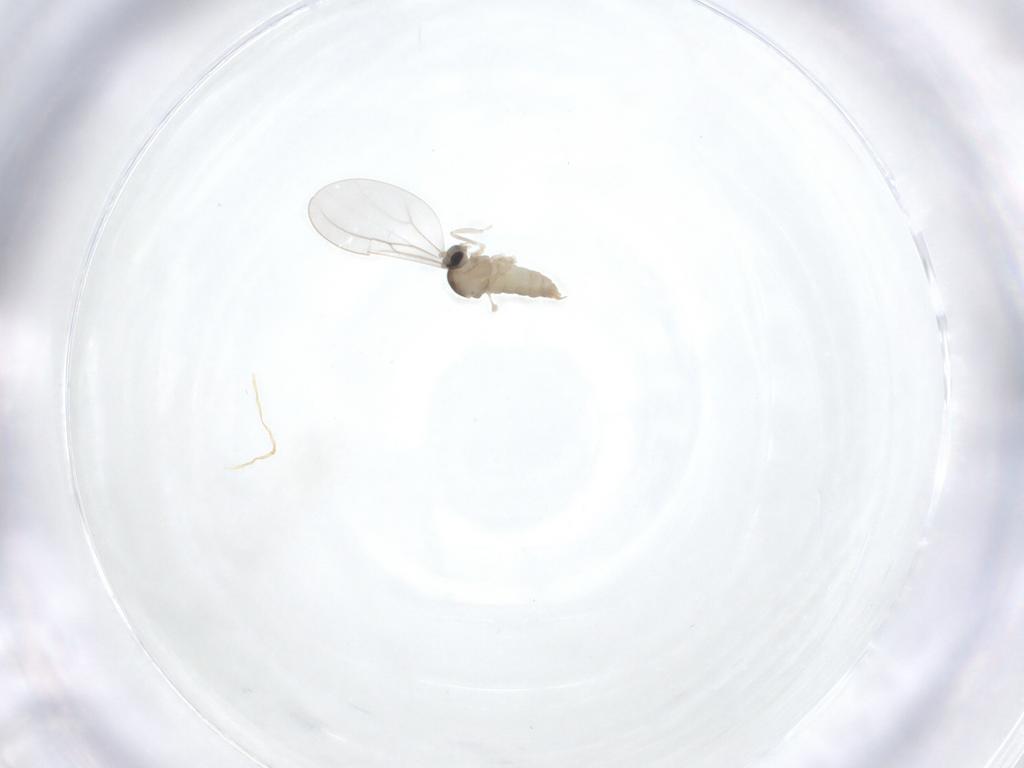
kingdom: Animalia
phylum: Arthropoda
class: Insecta
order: Diptera
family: Cecidomyiidae
